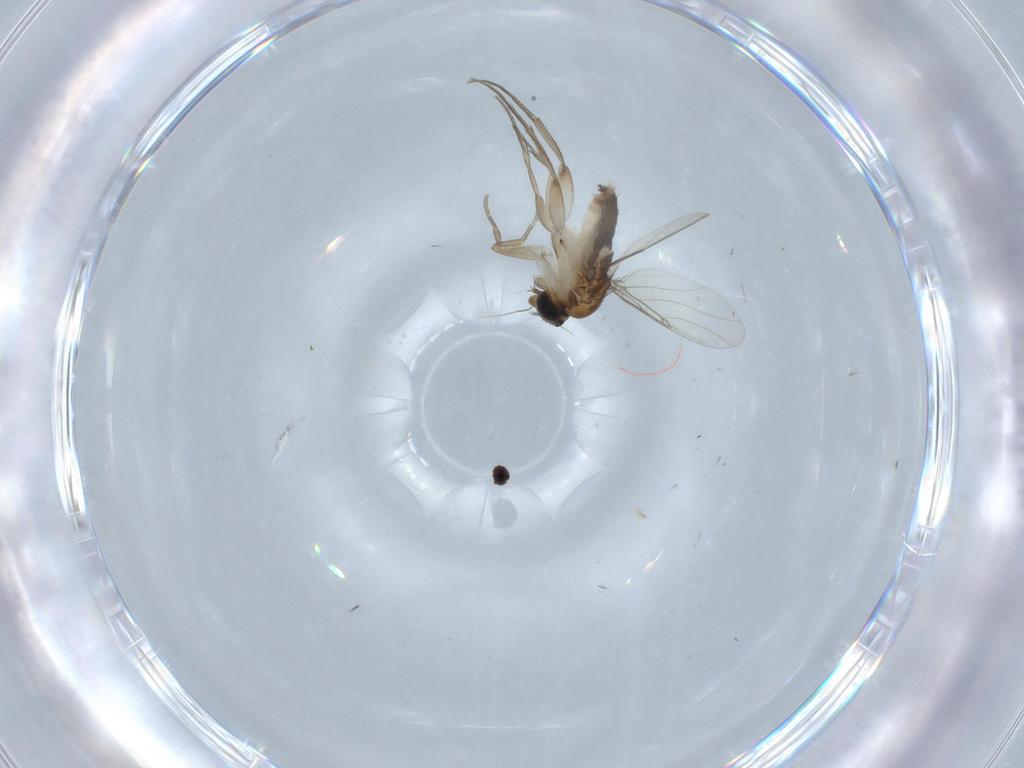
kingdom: Animalia
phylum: Arthropoda
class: Insecta
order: Diptera
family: Phoridae
